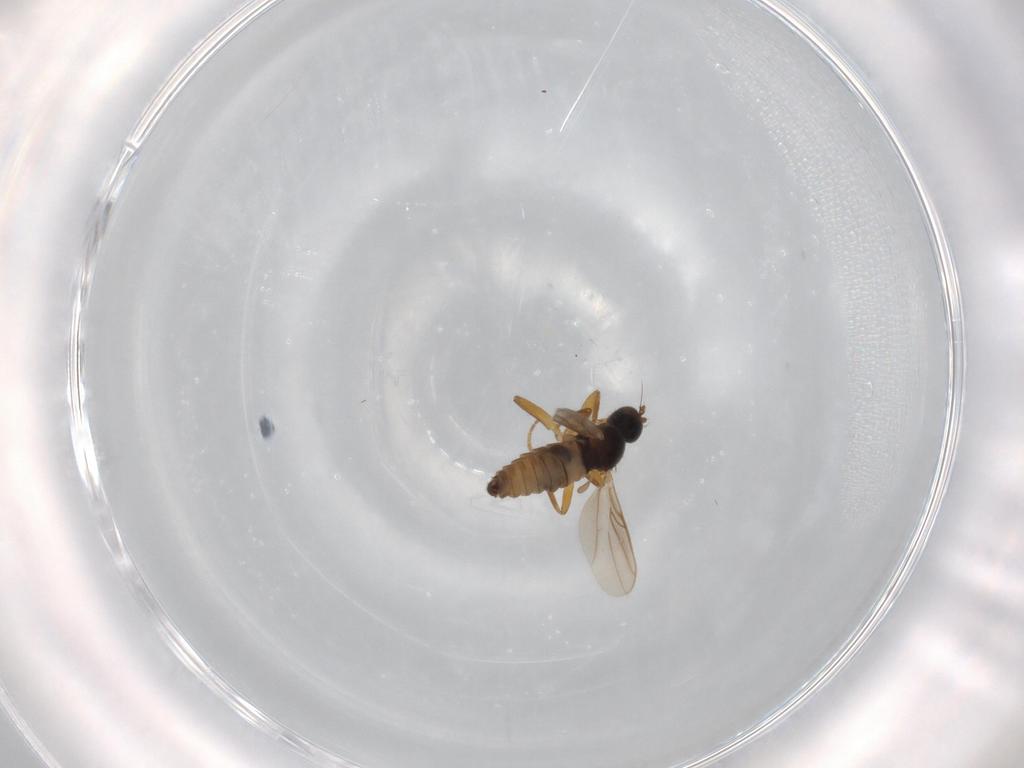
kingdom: Animalia
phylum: Arthropoda
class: Insecta
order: Diptera
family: Hybotidae
